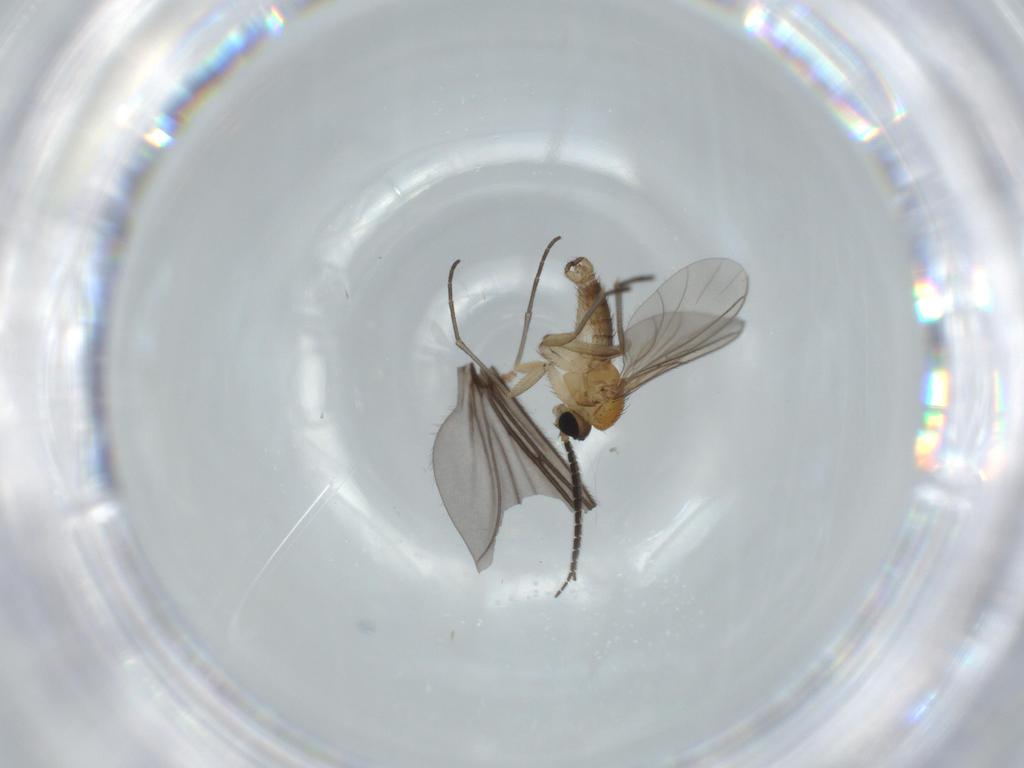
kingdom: Animalia
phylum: Arthropoda
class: Insecta
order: Diptera
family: Sciaridae
